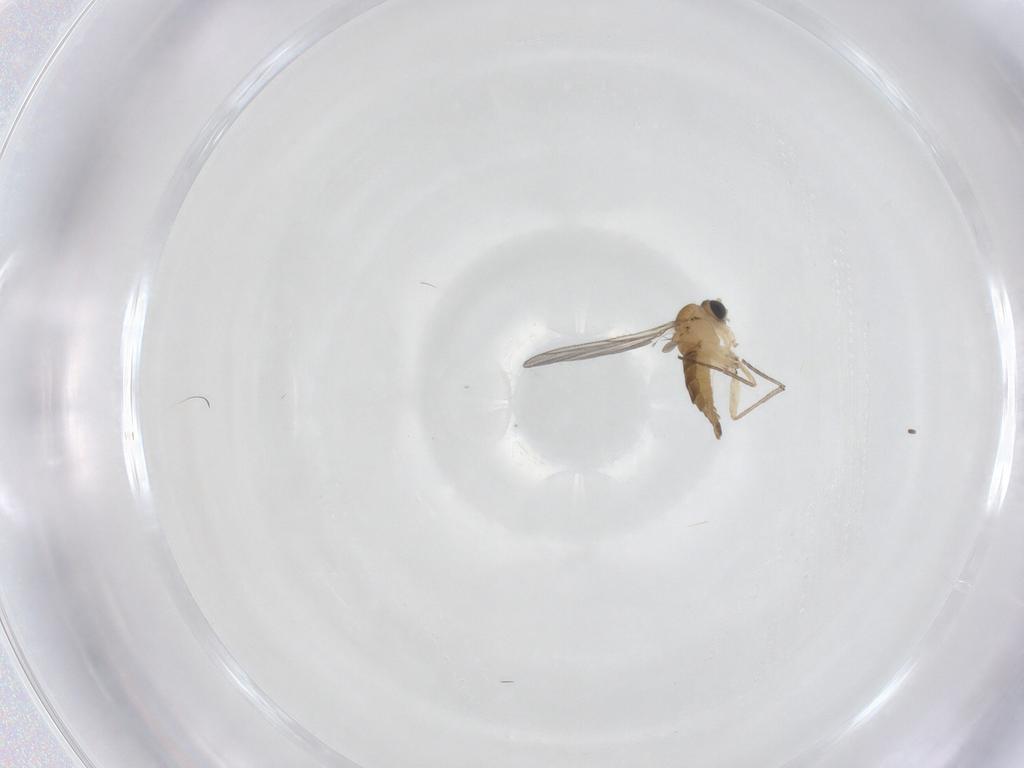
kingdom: Animalia
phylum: Arthropoda
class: Insecta
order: Diptera
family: Sciaridae
